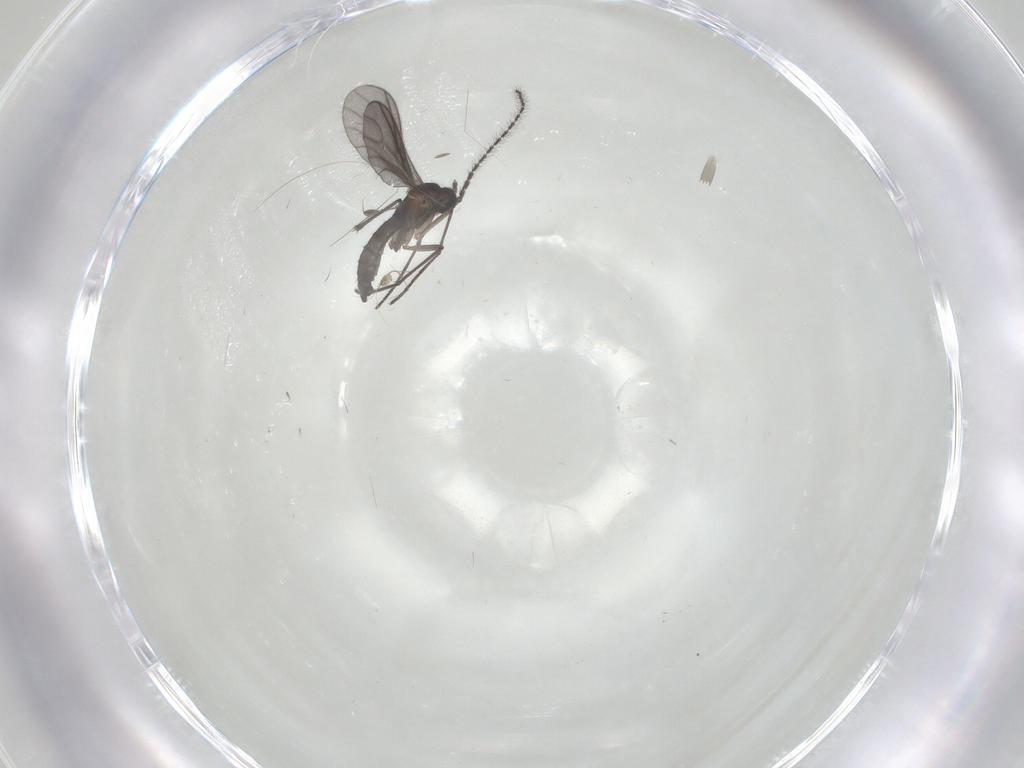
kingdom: Animalia
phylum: Arthropoda
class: Insecta
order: Diptera
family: Sciaridae
